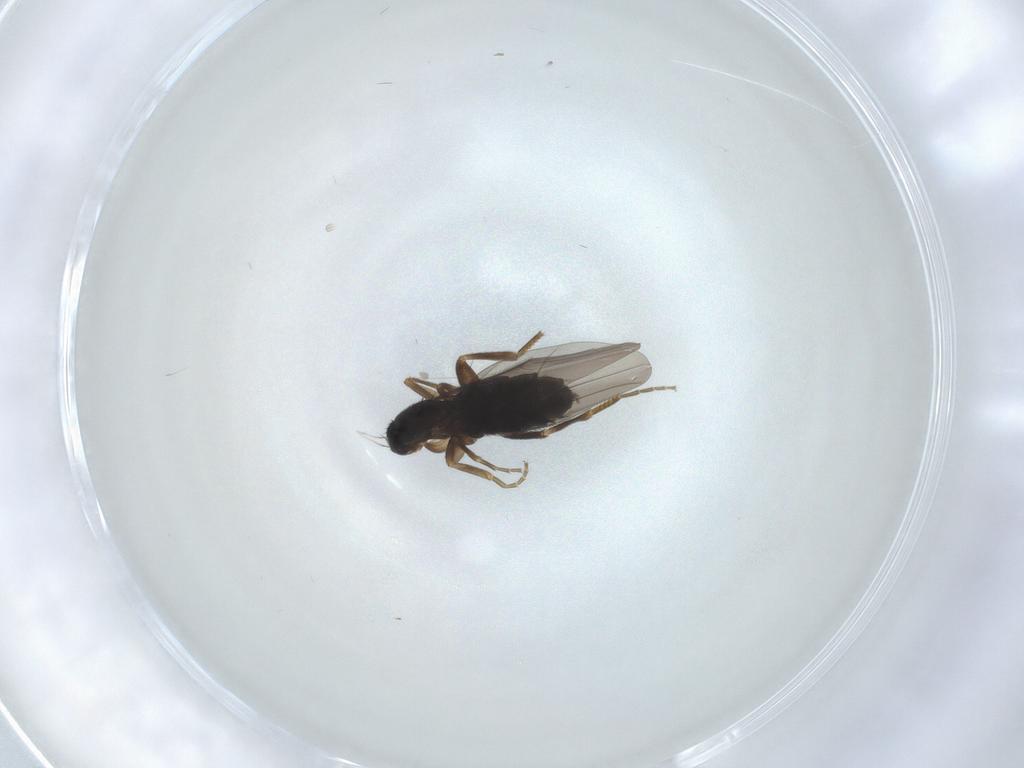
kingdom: Animalia
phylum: Arthropoda
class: Insecta
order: Diptera
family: Phoridae
